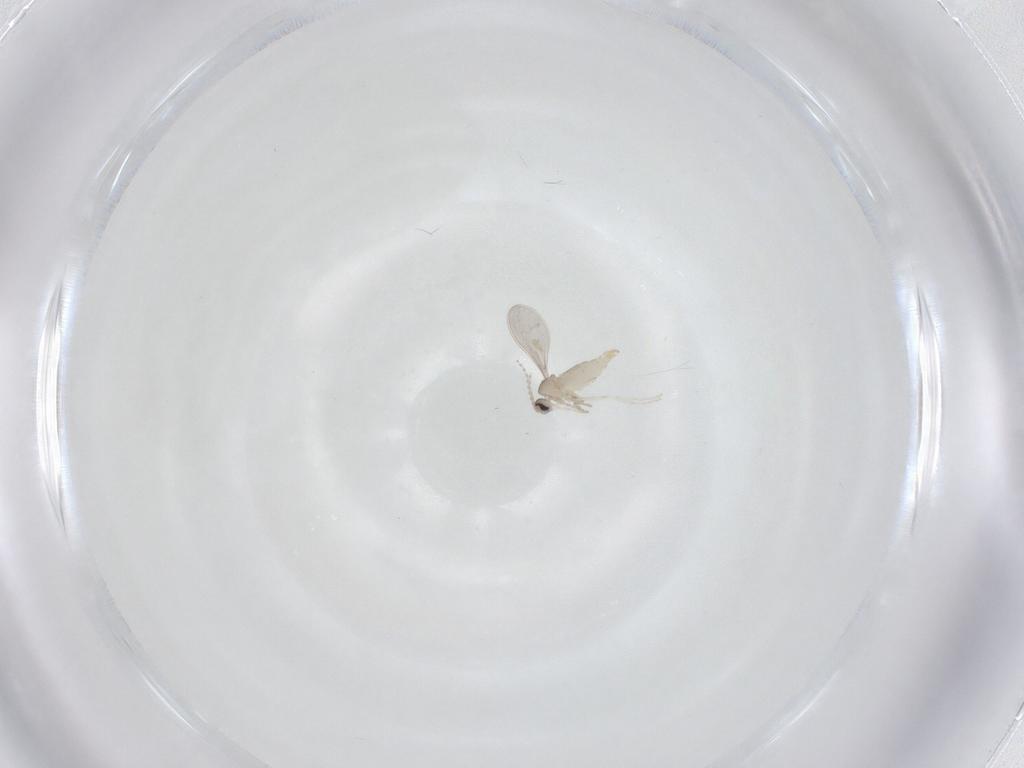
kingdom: Animalia
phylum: Arthropoda
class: Insecta
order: Diptera
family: Cecidomyiidae
